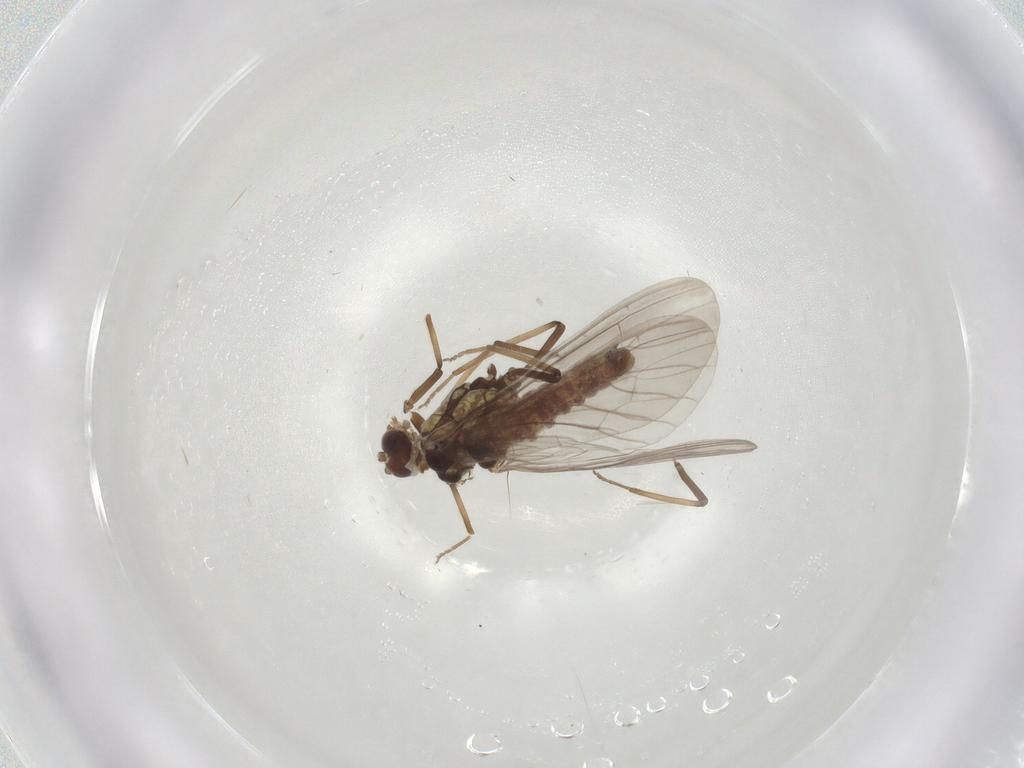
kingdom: Animalia
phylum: Arthropoda
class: Insecta
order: Neuroptera
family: Coniopterygidae
